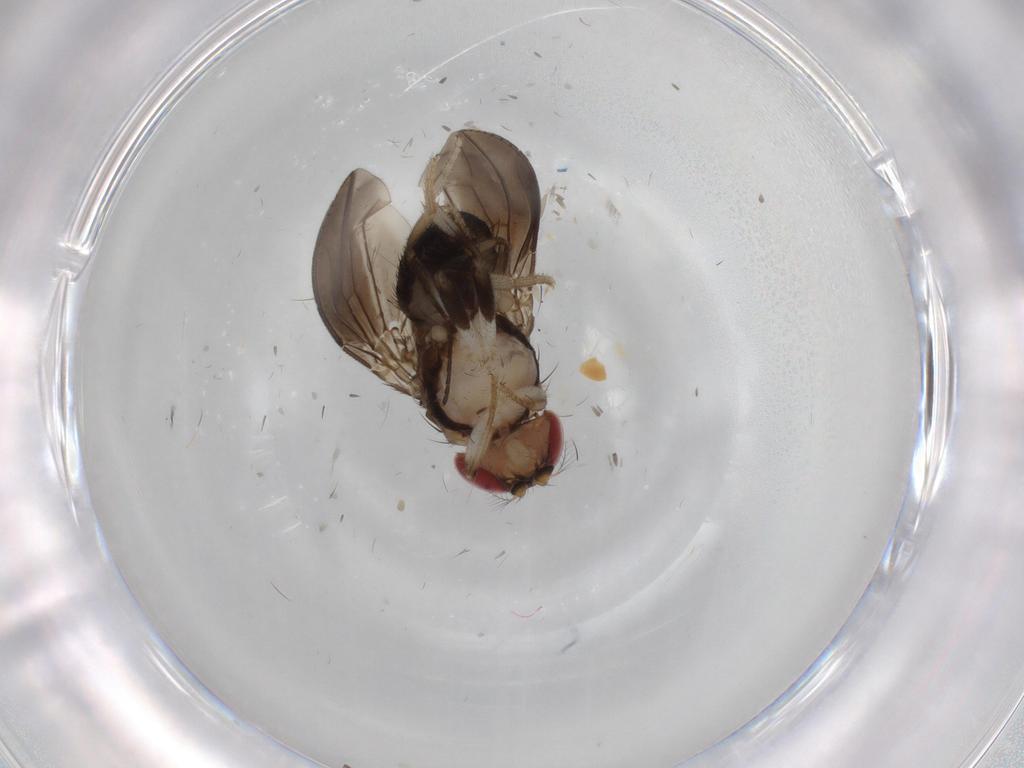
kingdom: Animalia
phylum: Arthropoda
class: Insecta
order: Diptera
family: Drosophilidae
